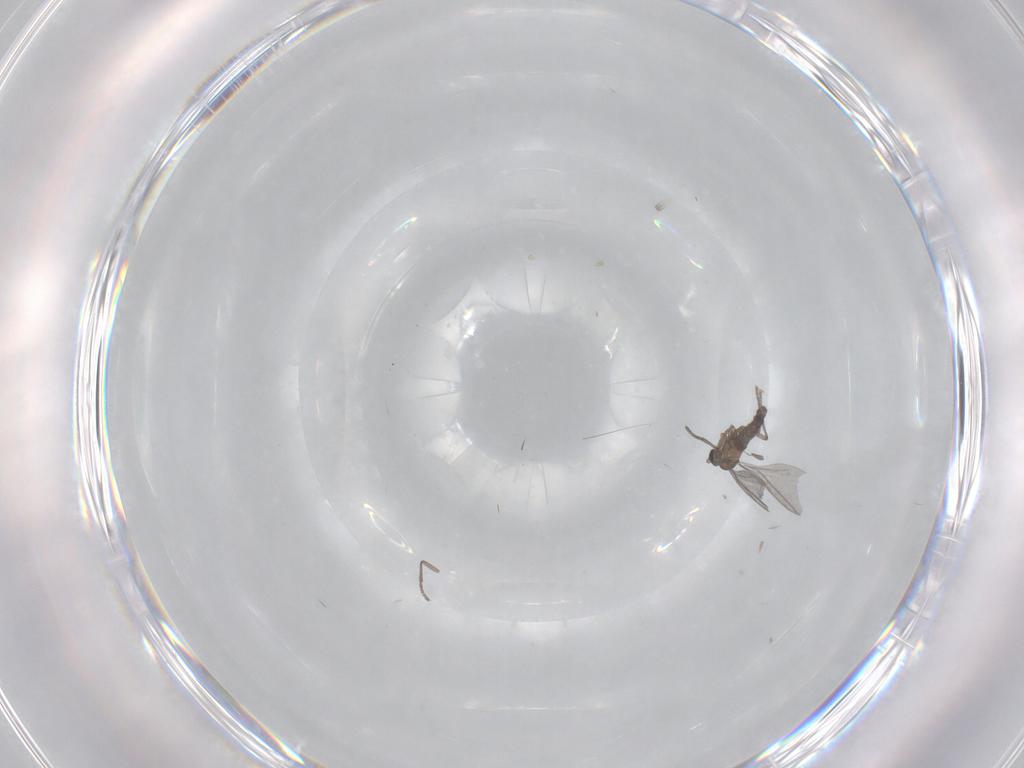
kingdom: Animalia
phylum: Arthropoda
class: Insecta
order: Diptera
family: Sciaridae
